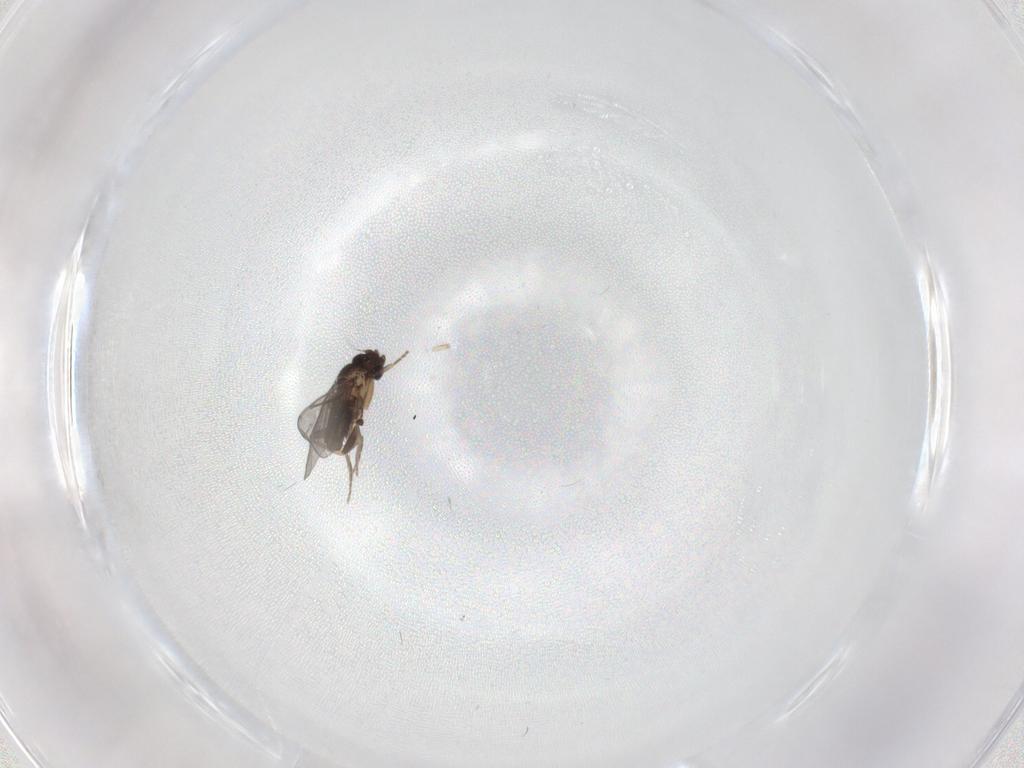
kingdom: Animalia
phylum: Arthropoda
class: Insecta
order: Diptera
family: Phoridae
